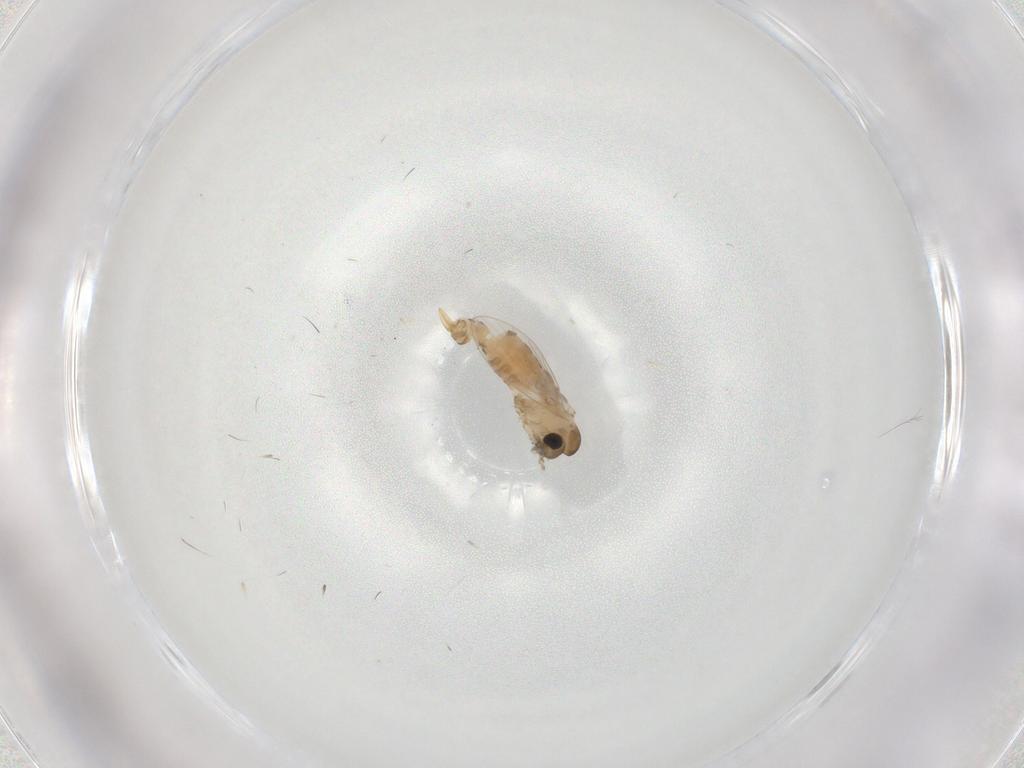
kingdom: Animalia
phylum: Arthropoda
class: Insecta
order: Diptera
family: Psychodidae
